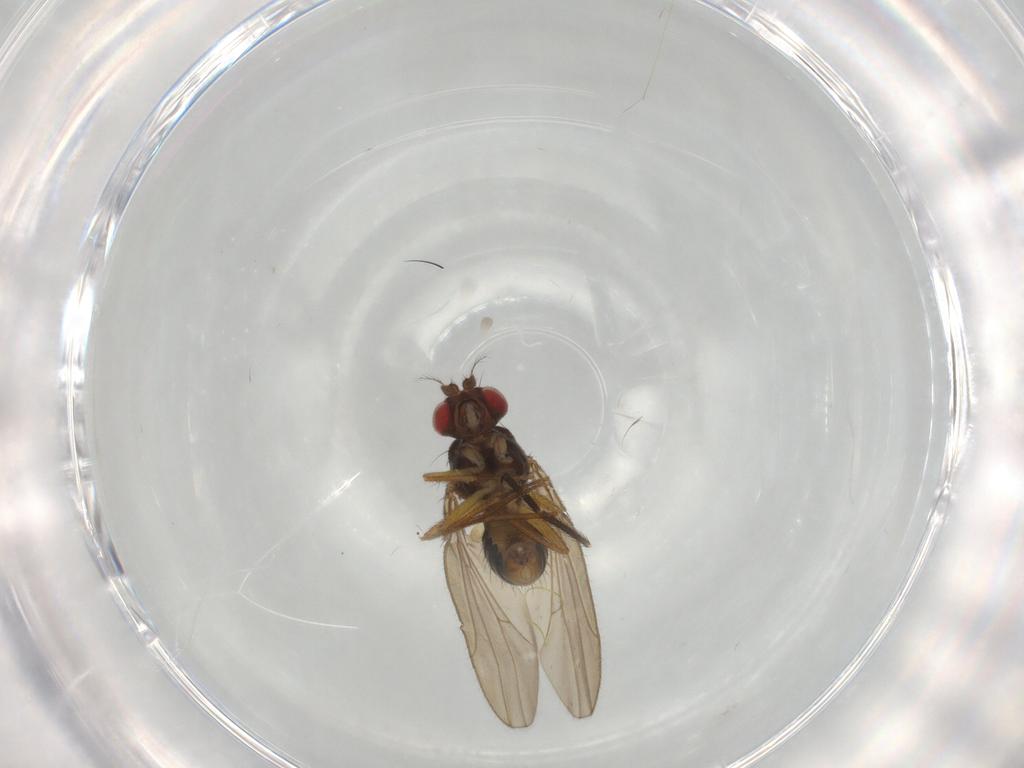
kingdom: Animalia
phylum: Arthropoda
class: Insecta
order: Diptera
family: Drosophilidae
